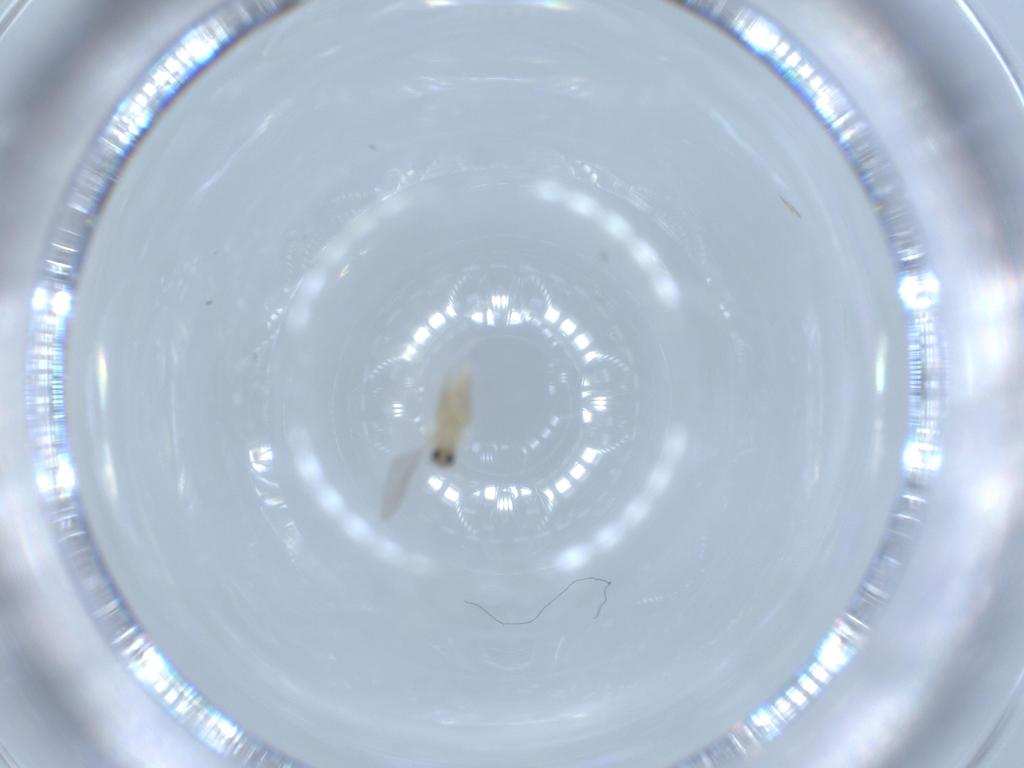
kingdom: Animalia
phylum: Arthropoda
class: Insecta
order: Diptera
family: Cecidomyiidae
